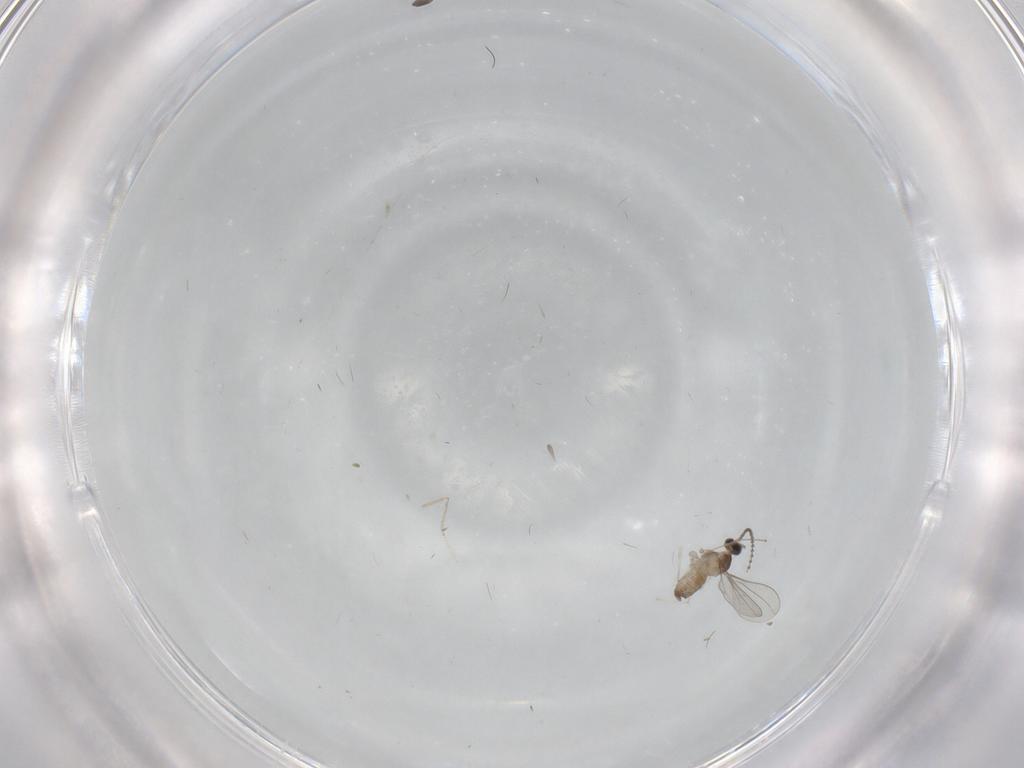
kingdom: Animalia
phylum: Arthropoda
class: Insecta
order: Diptera
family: Cecidomyiidae
